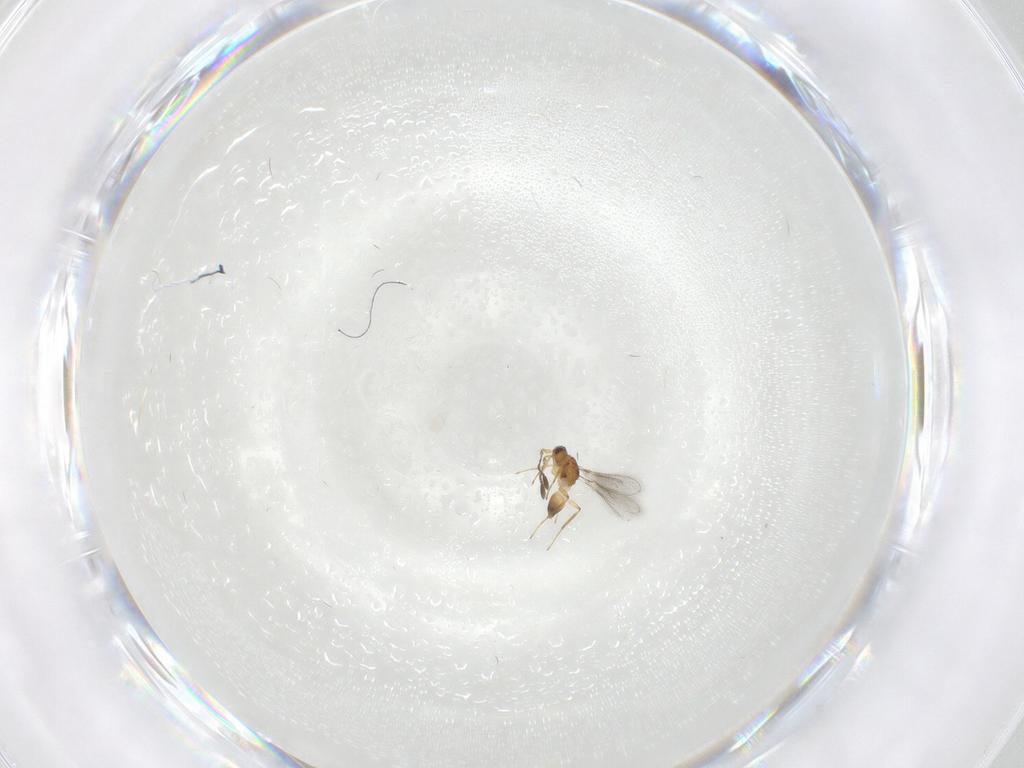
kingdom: Animalia
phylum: Arthropoda
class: Insecta
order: Hymenoptera
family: Mymaridae
